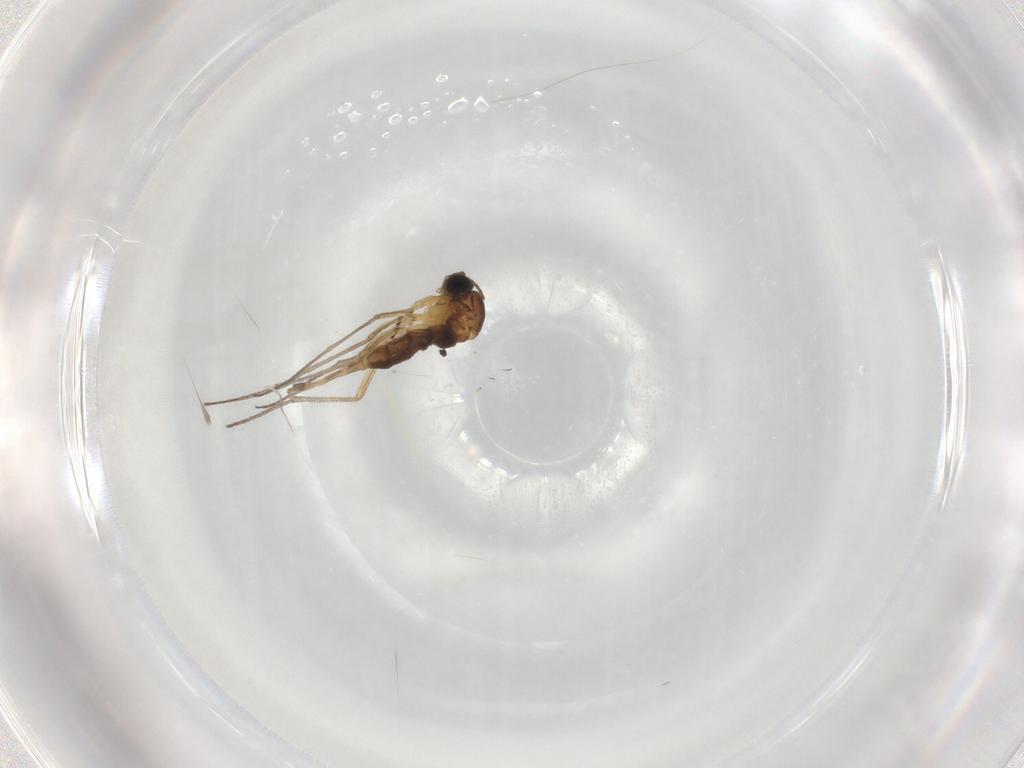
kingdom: Animalia
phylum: Arthropoda
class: Insecta
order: Diptera
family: Sciaridae
